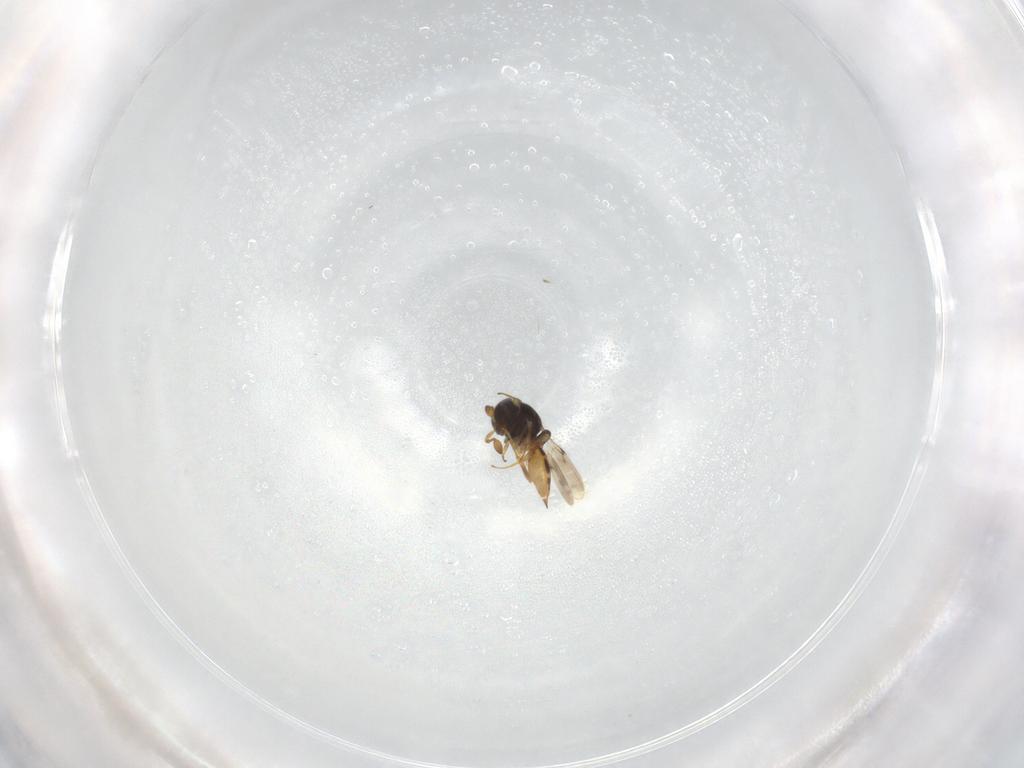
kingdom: Animalia
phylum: Arthropoda
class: Insecta
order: Hymenoptera
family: Scelionidae
